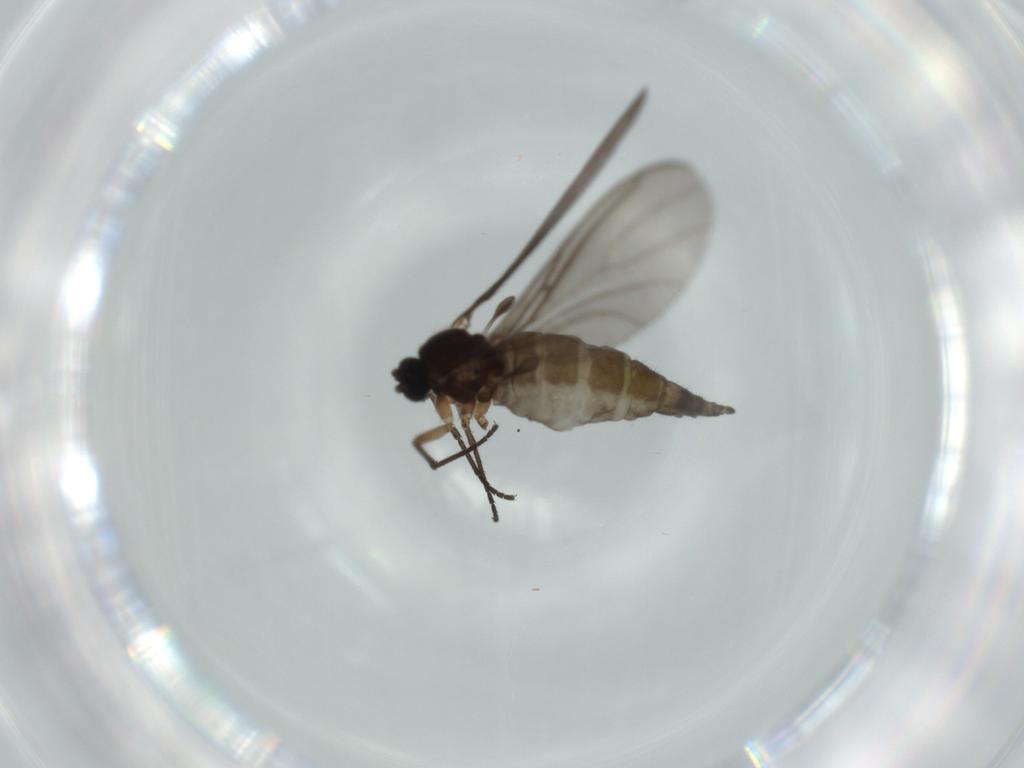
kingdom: Animalia
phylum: Arthropoda
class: Insecta
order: Diptera
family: Sciaridae
